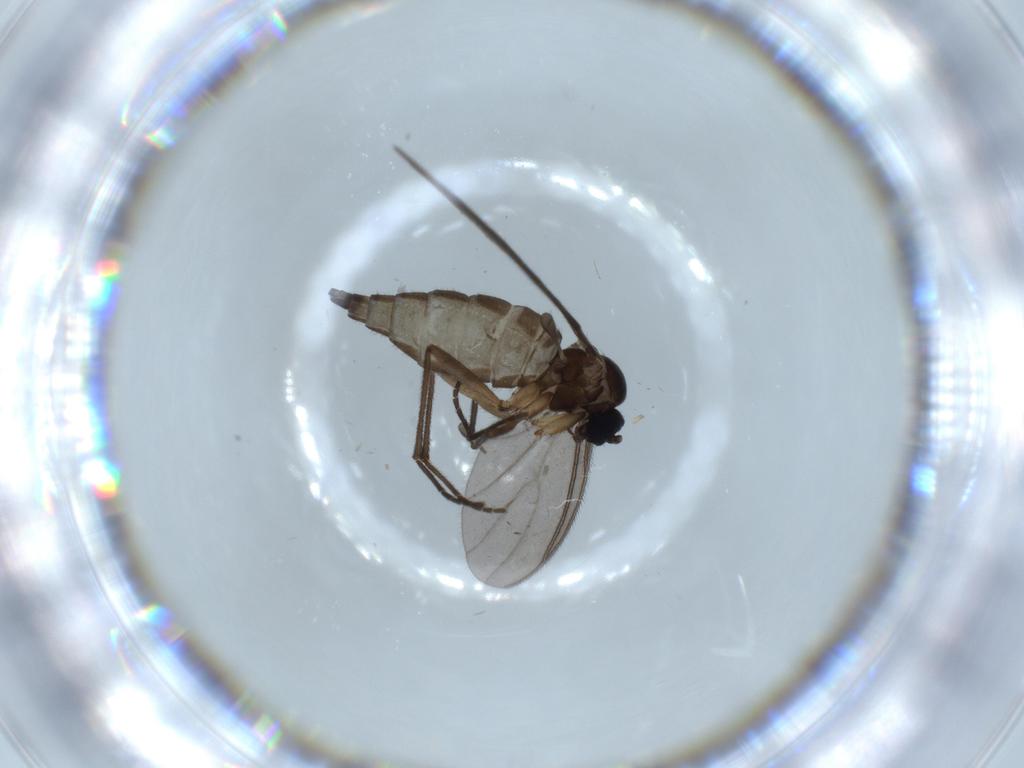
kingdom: Animalia
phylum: Arthropoda
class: Insecta
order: Diptera
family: Sciaridae
